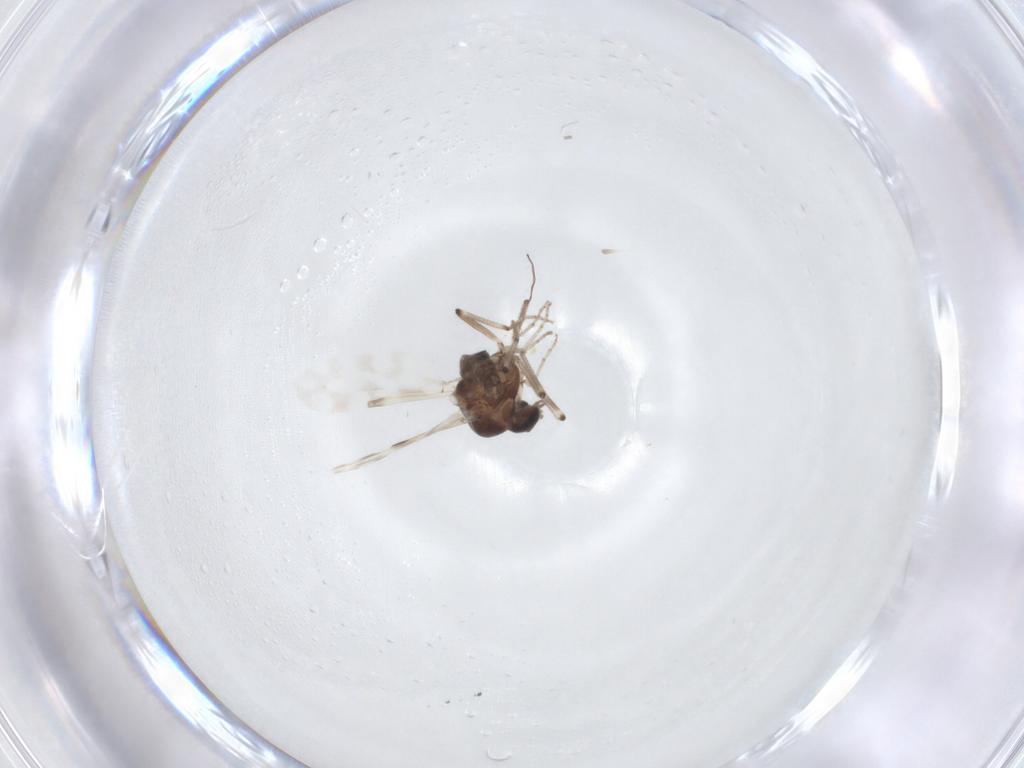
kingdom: Animalia
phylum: Arthropoda
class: Insecta
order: Diptera
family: Ceratopogonidae
